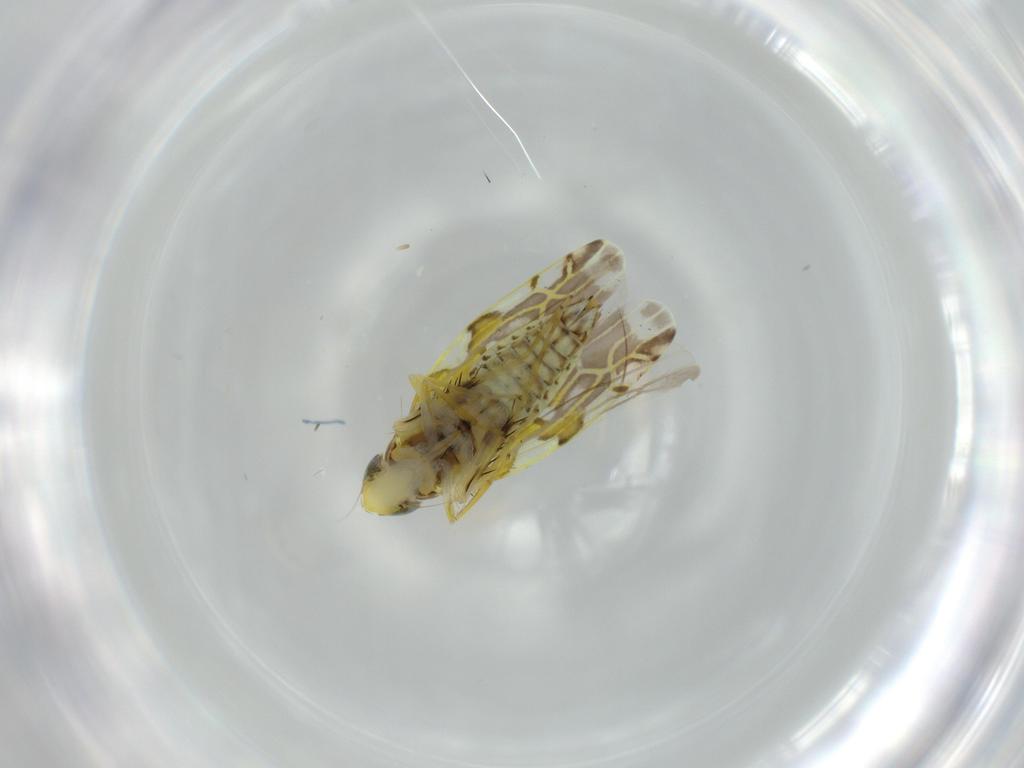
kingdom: Animalia
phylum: Arthropoda
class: Insecta
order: Hemiptera
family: Cicadellidae
